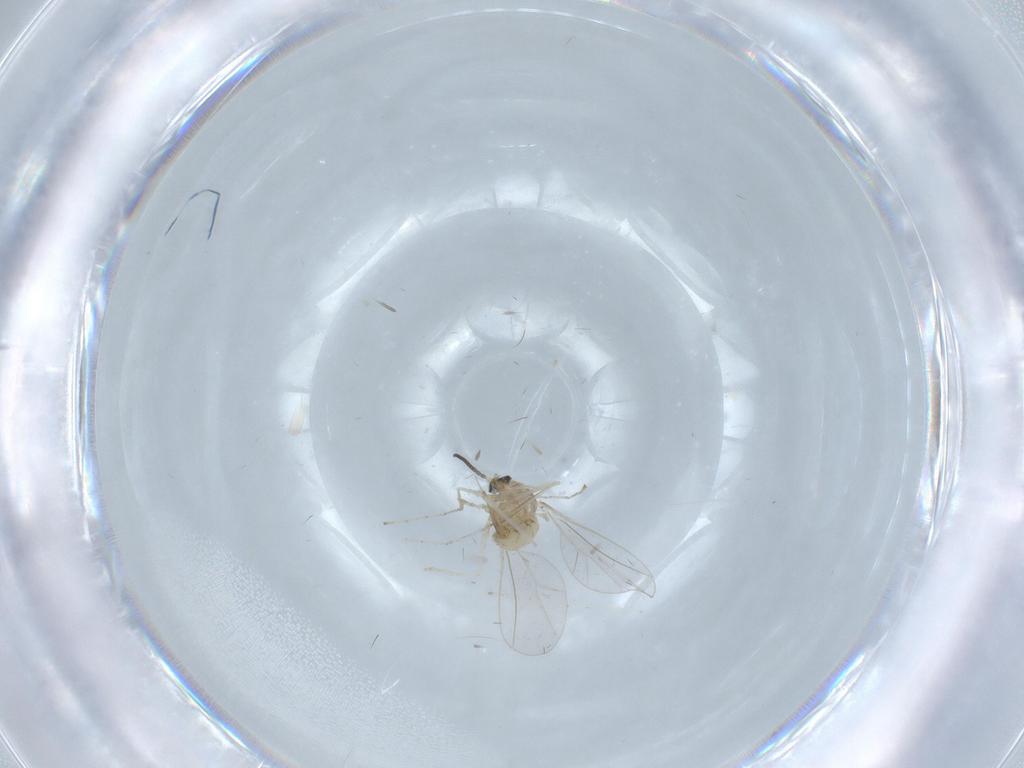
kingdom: Animalia
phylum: Arthropoda
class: Insecta
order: Diptera
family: Cecidomyiidae
